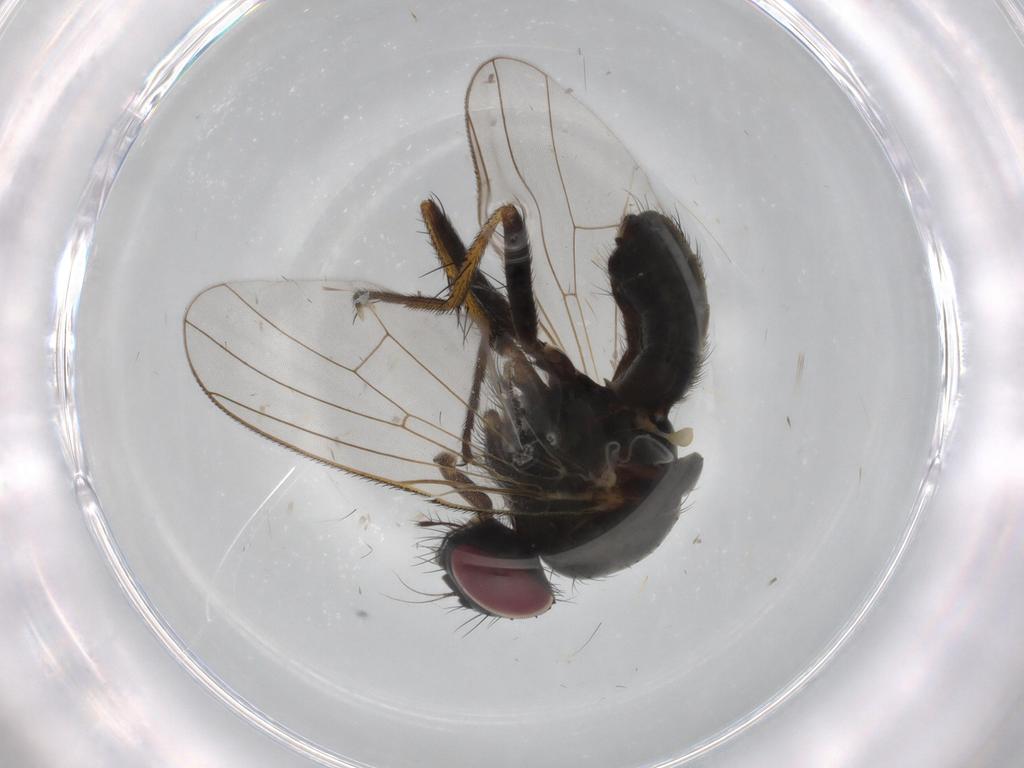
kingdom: Animalia
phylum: Arthropoda
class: Insecta
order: Diptera
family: Muscidae
